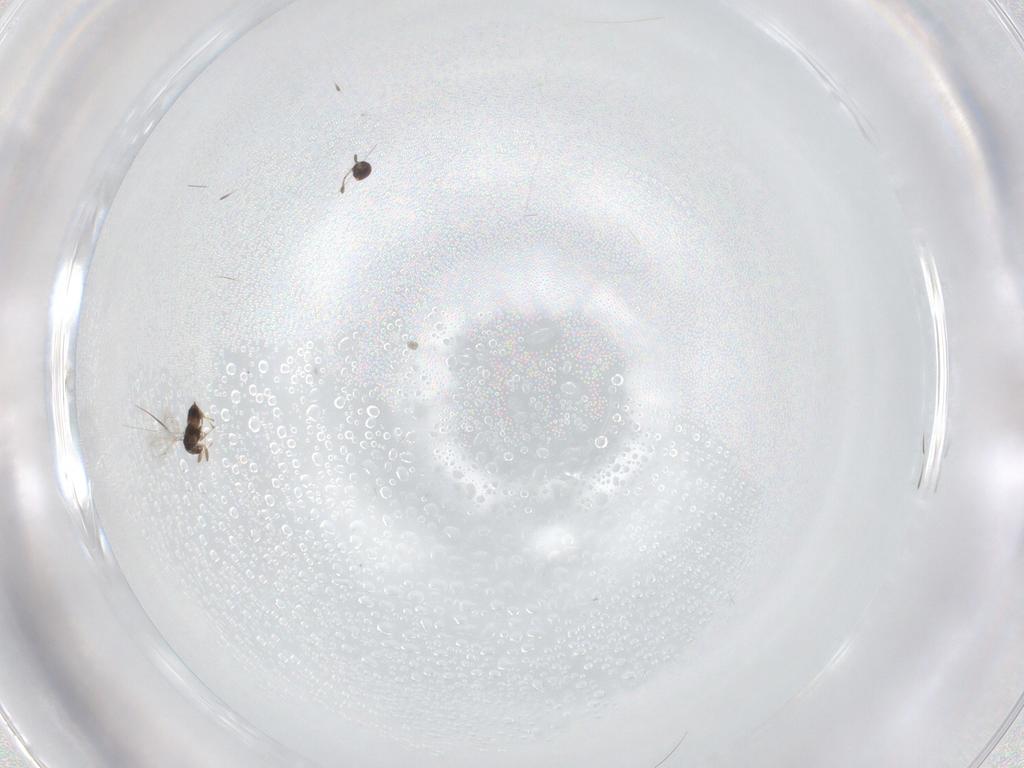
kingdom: Animalia
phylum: Arthropoda
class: Insecta
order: Hymenoptera
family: Mymaridae
